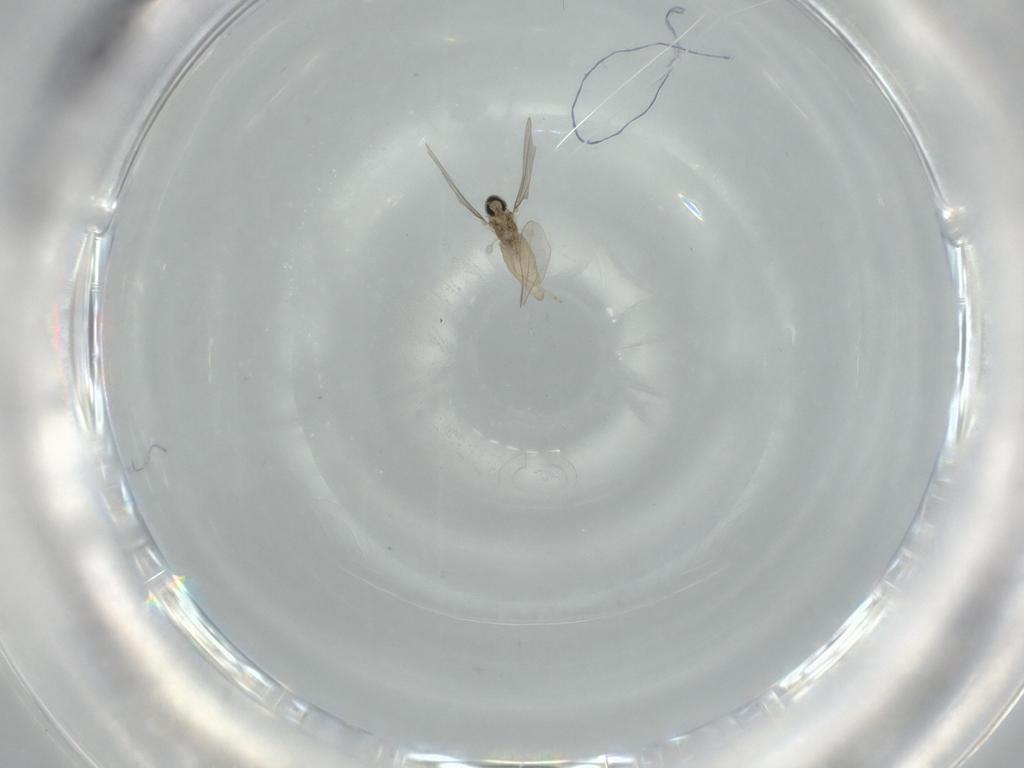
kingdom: Animalia
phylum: Arthropoda
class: Insecta
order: Diptera
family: Cecidomyiidae
